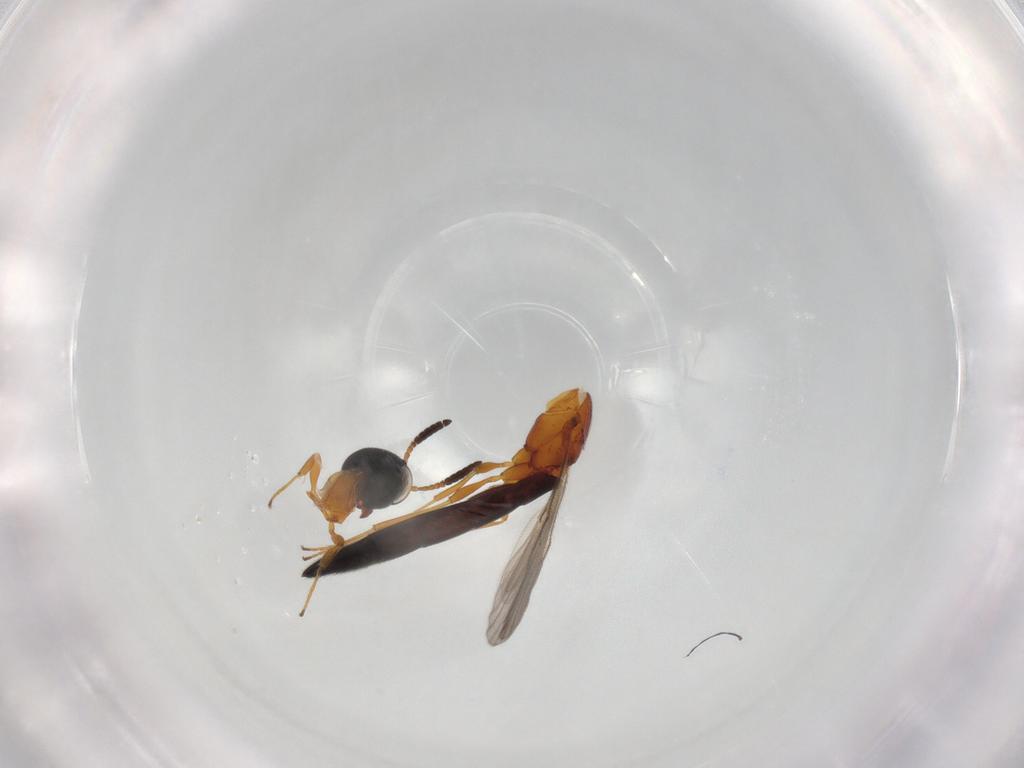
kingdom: Animalia
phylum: Arthropoda
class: Insecta
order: Hymenoptera
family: Scelionidae
